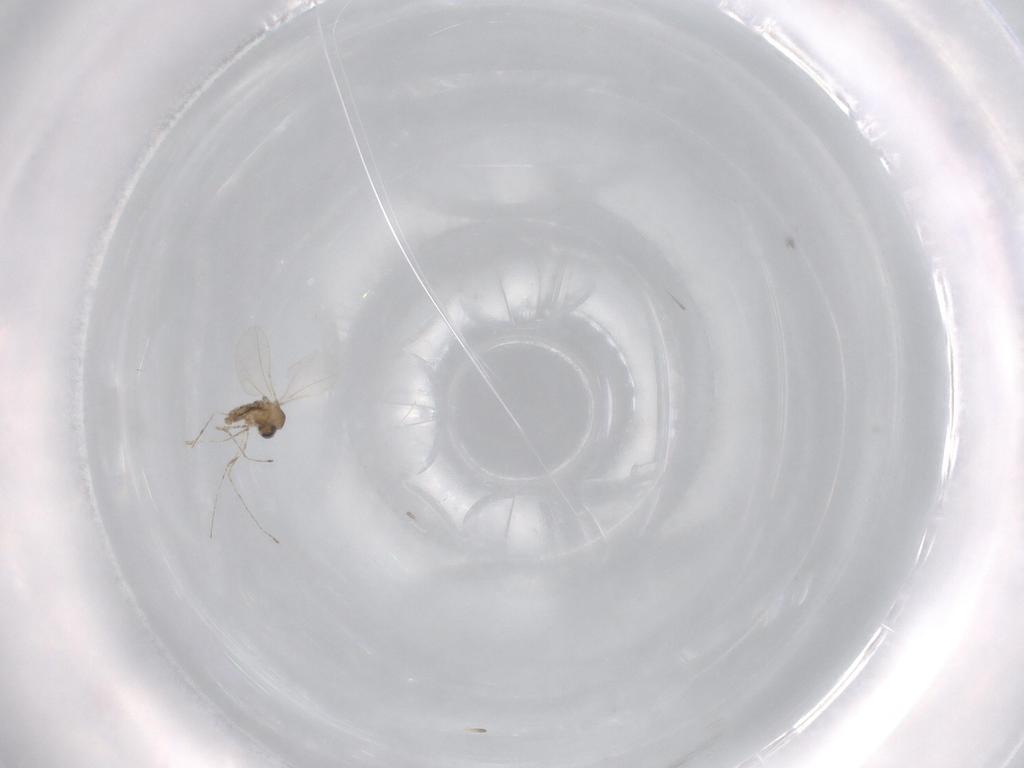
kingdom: Animalia
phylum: Arthropoda
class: Insecta
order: Diptera
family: Cecidomyiidae
